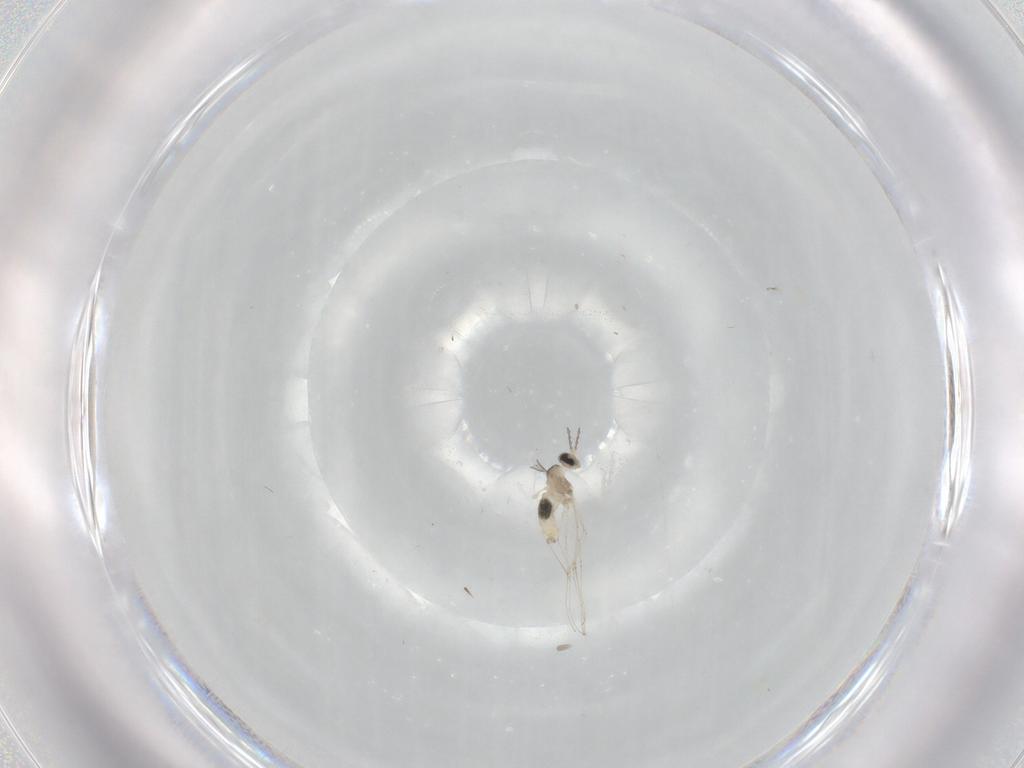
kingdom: Animalia
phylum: Arthropoda
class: Insecta
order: Diptera
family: Cecidomyiidae
